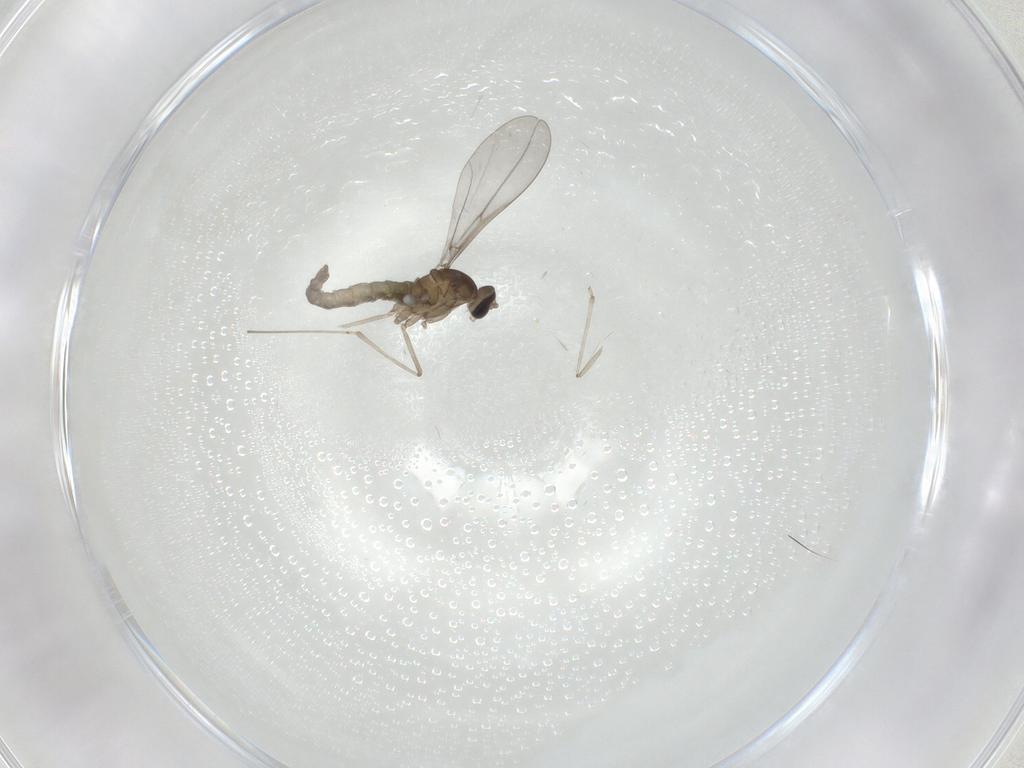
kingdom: Animalia
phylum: Arthropoda
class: Insecta
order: Diptera
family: Cecidomyiidae
